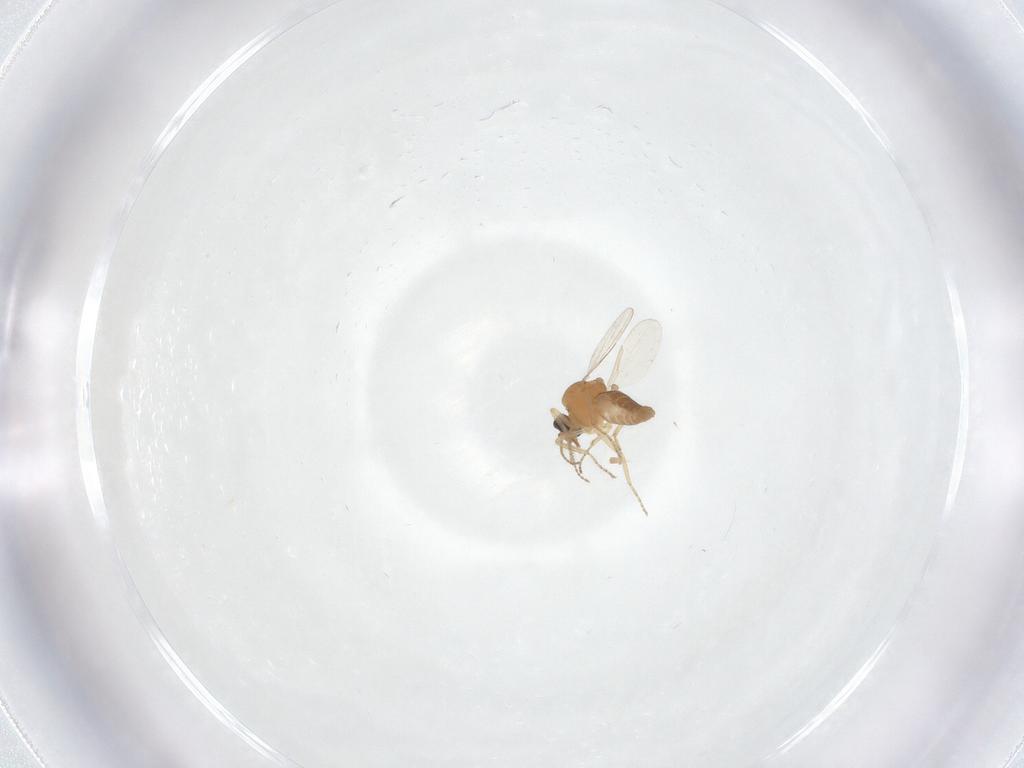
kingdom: Animalia
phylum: Arthropoda
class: Insecta
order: Diptera
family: Ceratopogonidae
